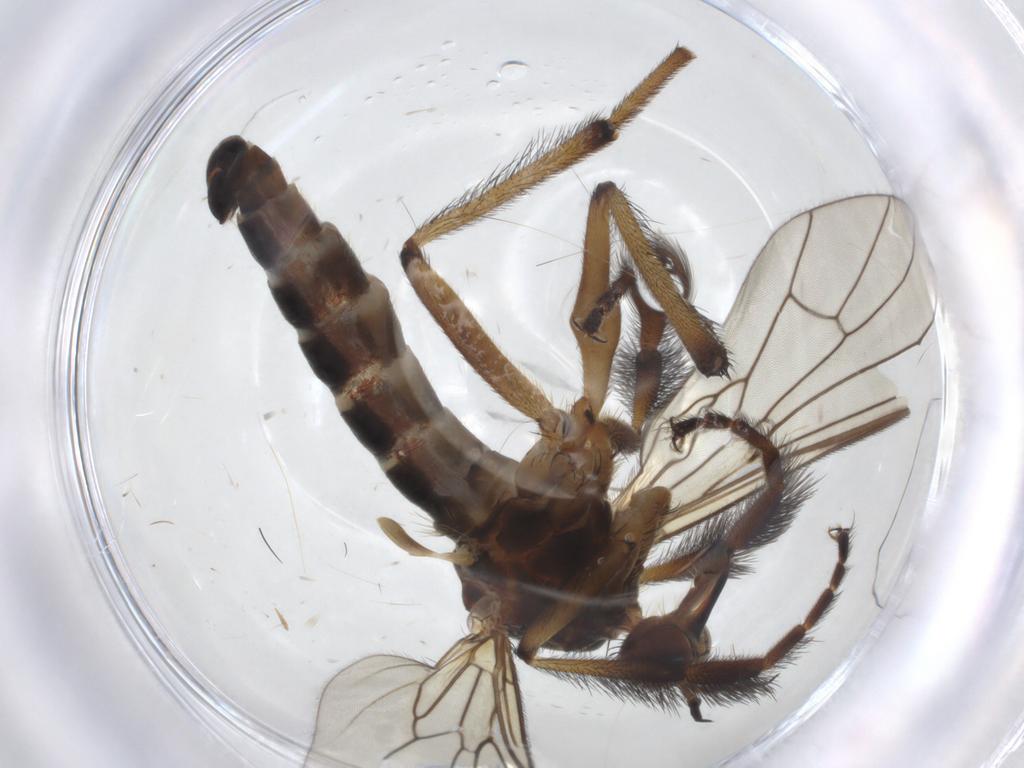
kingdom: Animalia
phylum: Arthropoda
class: Insecta
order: Diptera
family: Empididae
